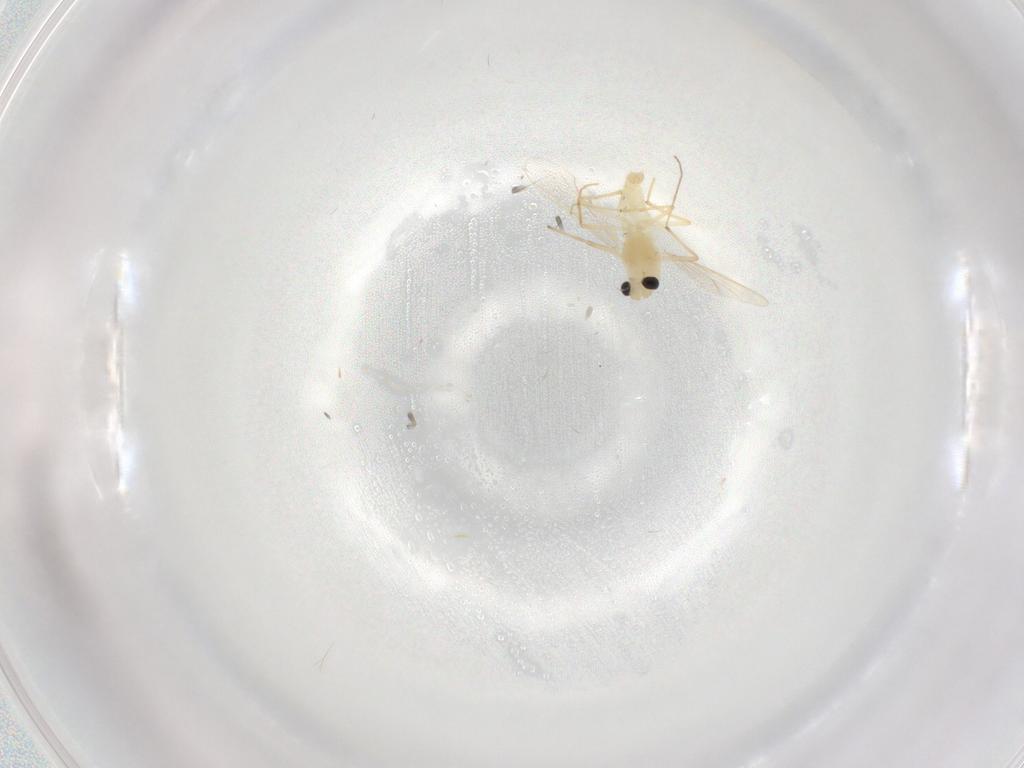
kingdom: Animalia
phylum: Arthropoda
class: Insecta
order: Diptera
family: Chironomidae
